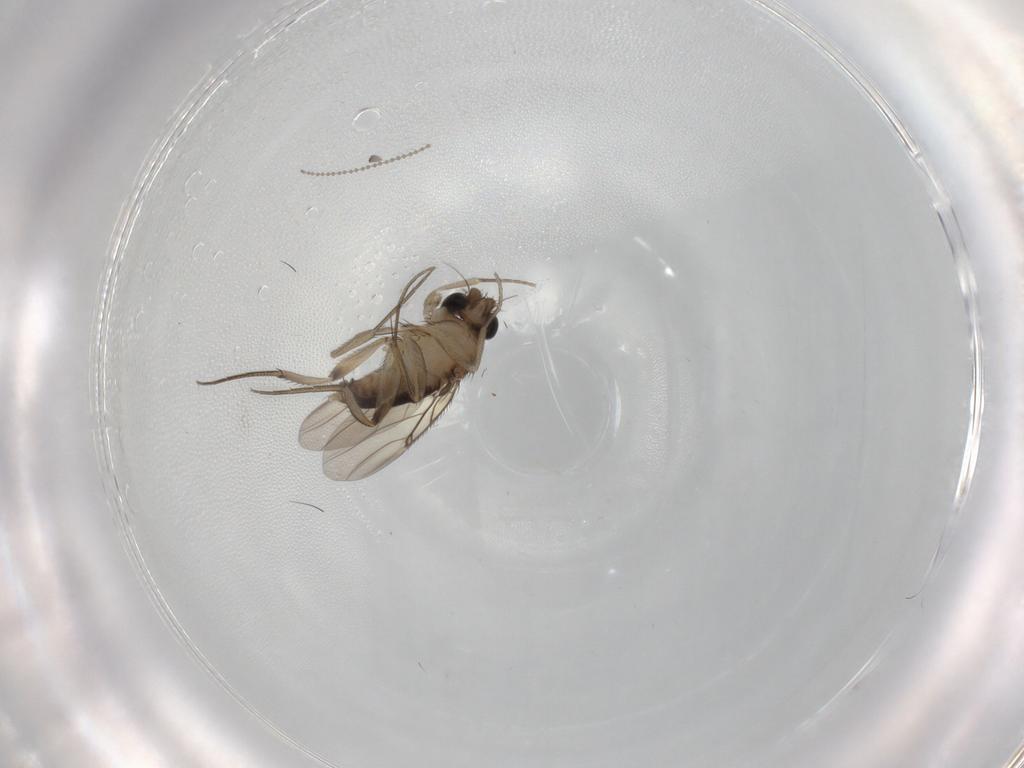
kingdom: Animalia
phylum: Arthropoda
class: Insecta
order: Diptera
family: Phoridae
